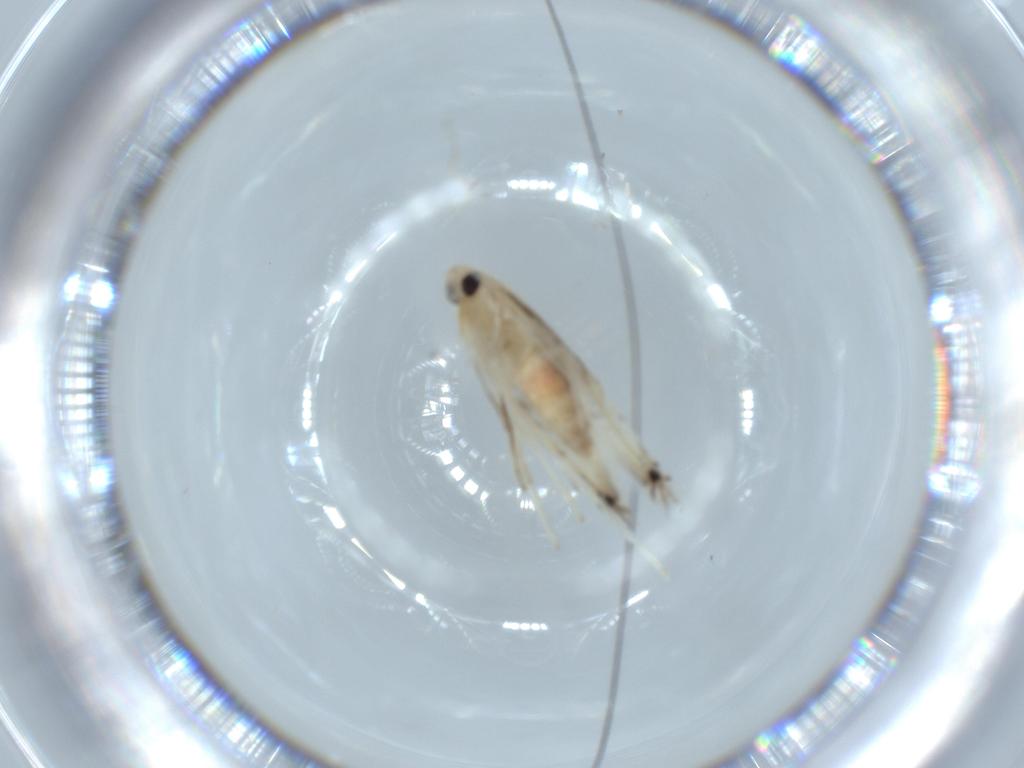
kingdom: Animalia
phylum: Arthropoda
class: Insecta
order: Lepidoptera
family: Gracillariidae
